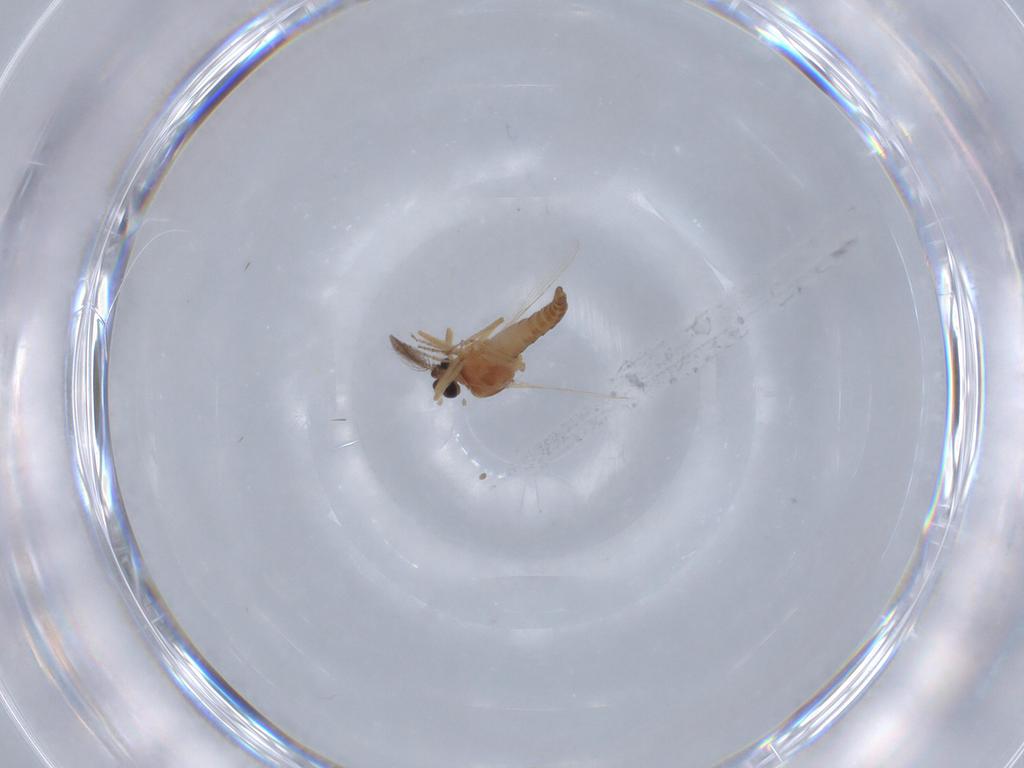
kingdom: Animalia
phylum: Arthropoda
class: Insecta
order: Diptera
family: Ceratopogonidae
